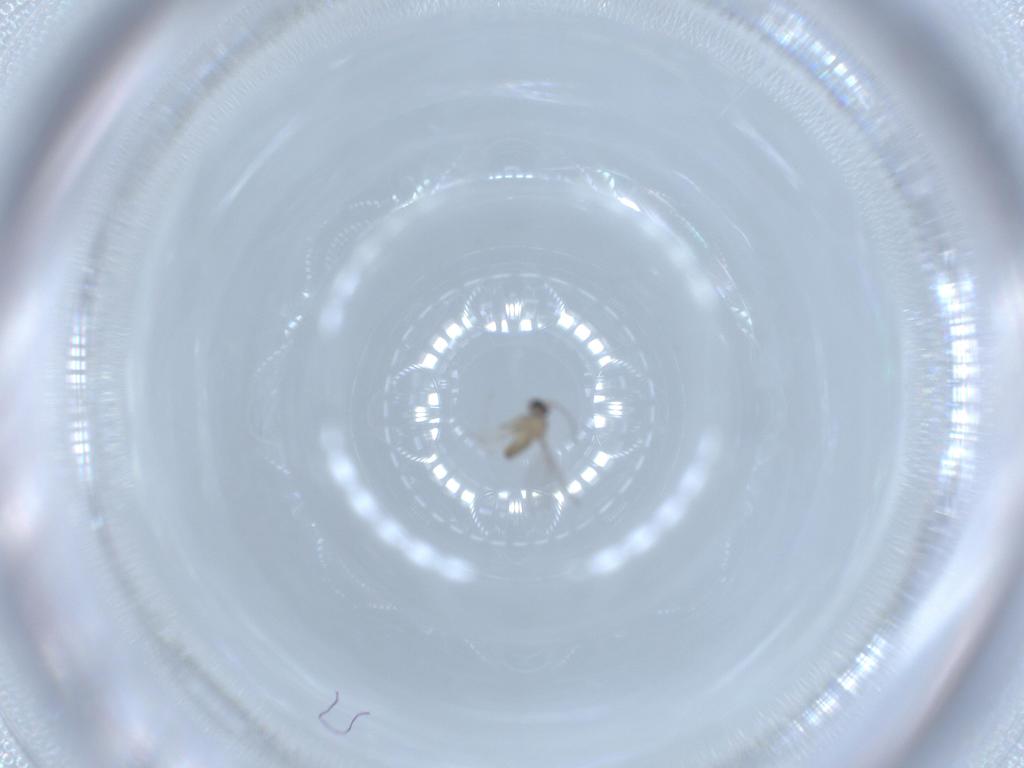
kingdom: Animalia
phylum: Arthropoda
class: Insecta
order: Diptera
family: Cecidomyiidae
